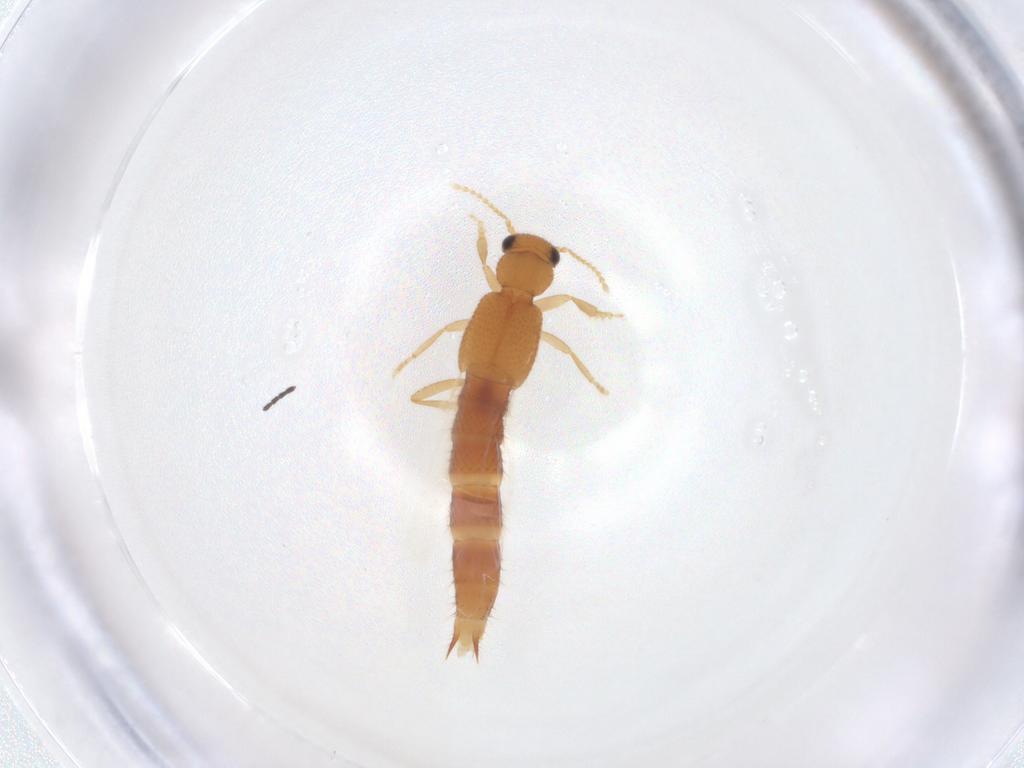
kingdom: Animalia
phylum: Arthropoda
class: Insecta
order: Coleoptera
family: Staphylinidae
